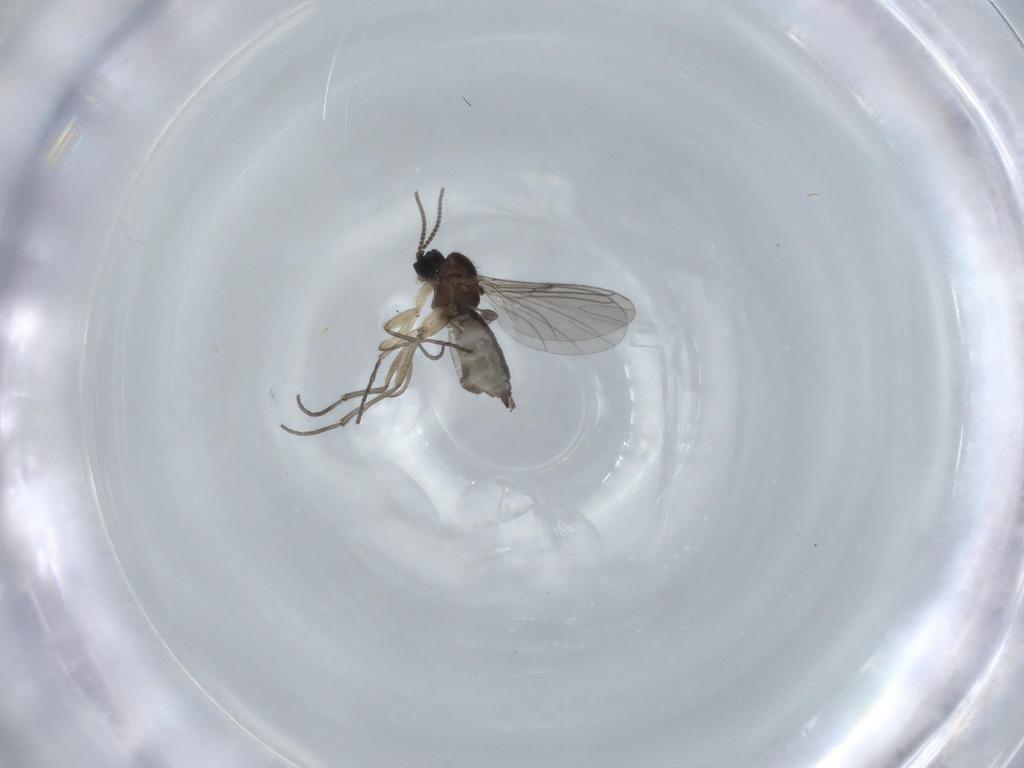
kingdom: Animalia
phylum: Arthropoda
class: Insecta
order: Diptera
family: Sciaridae
